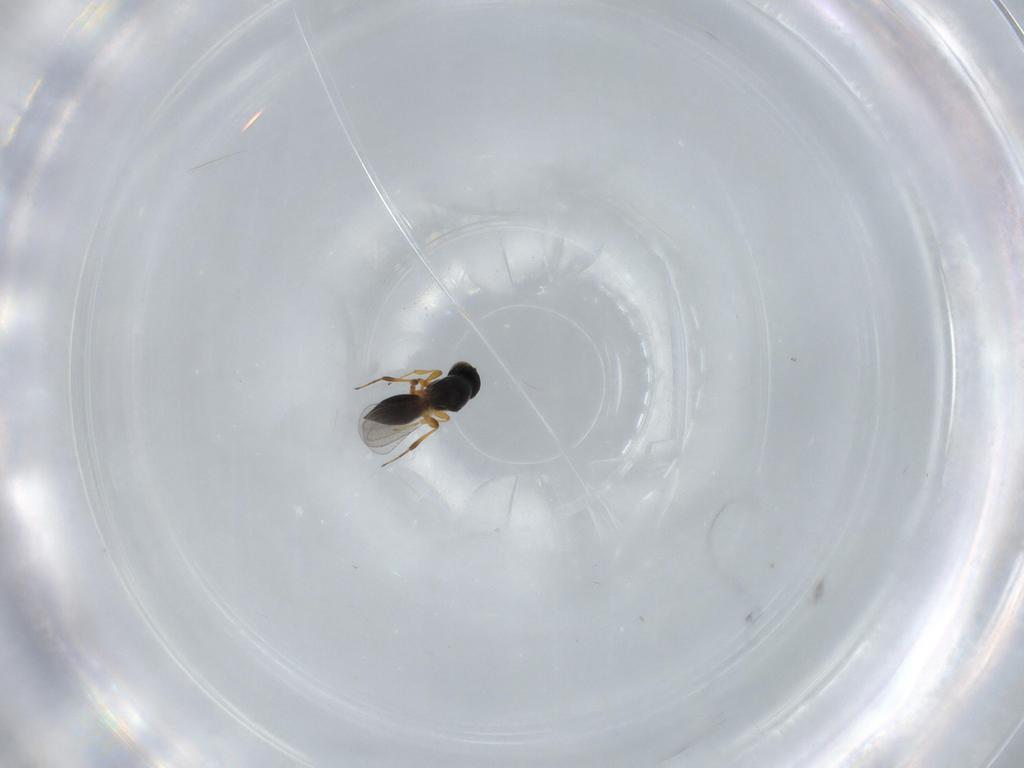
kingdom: Animalia
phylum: Arthropoda
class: Insecta
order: Hymenoptera
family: Platygastridae
